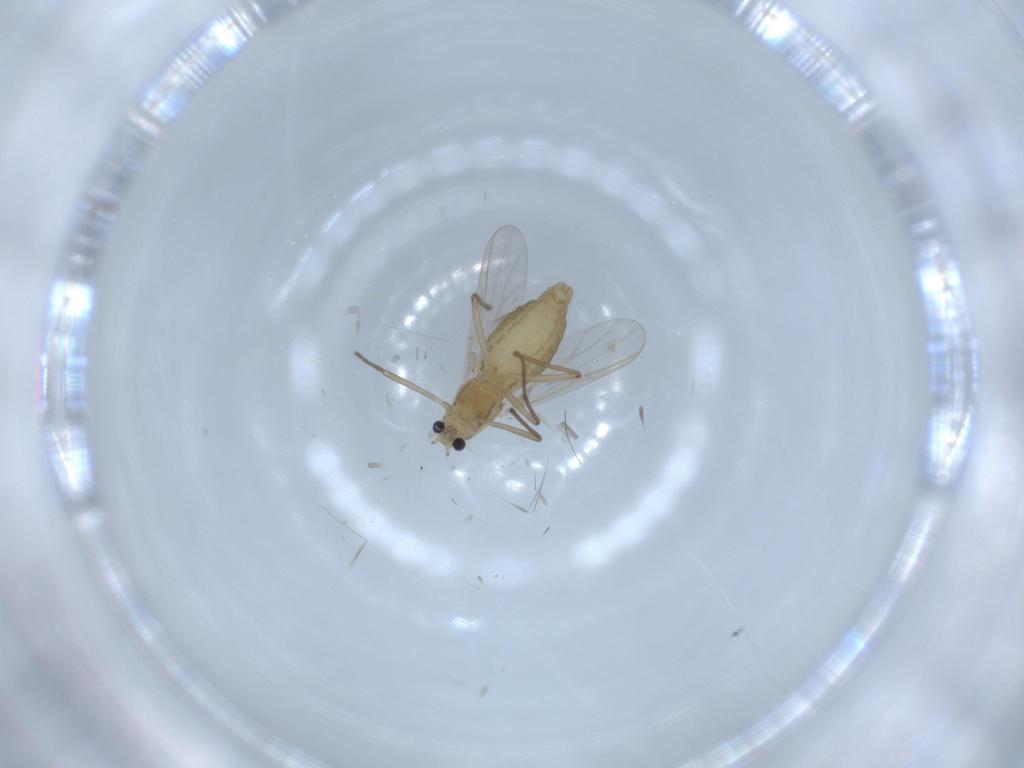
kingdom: Animalia
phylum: Arthropoda
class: Insecta
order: Diptera
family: Chironomidae
